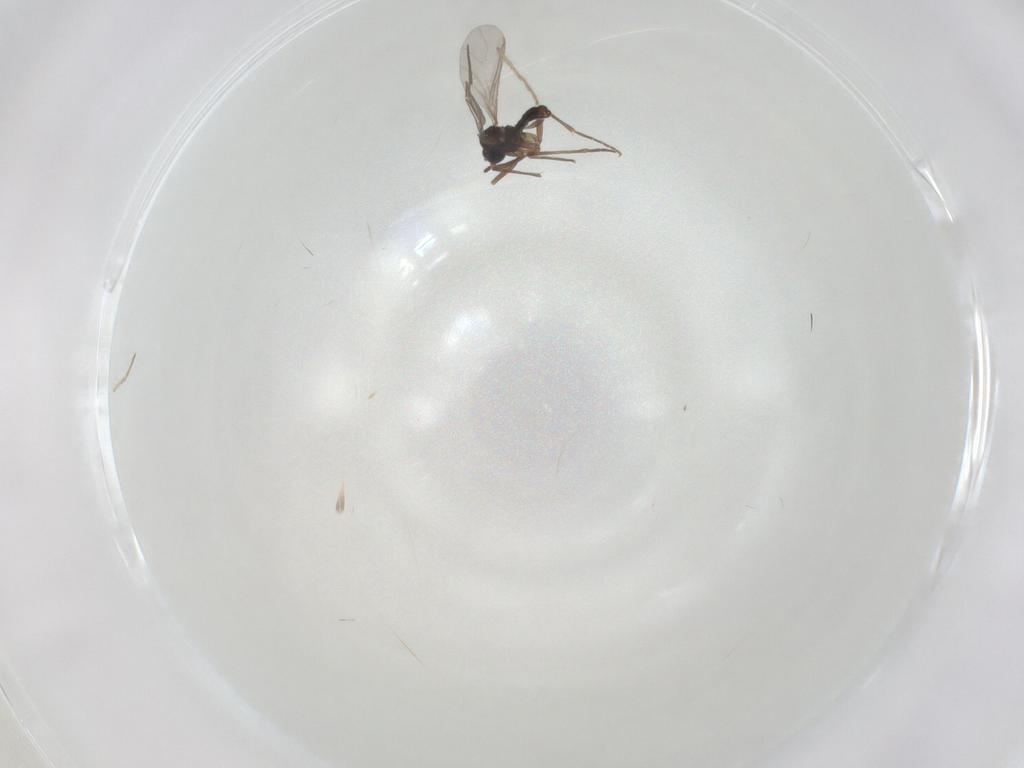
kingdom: Animalia
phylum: Arthropoda
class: Insecta
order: Diptera
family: Sciaridae
